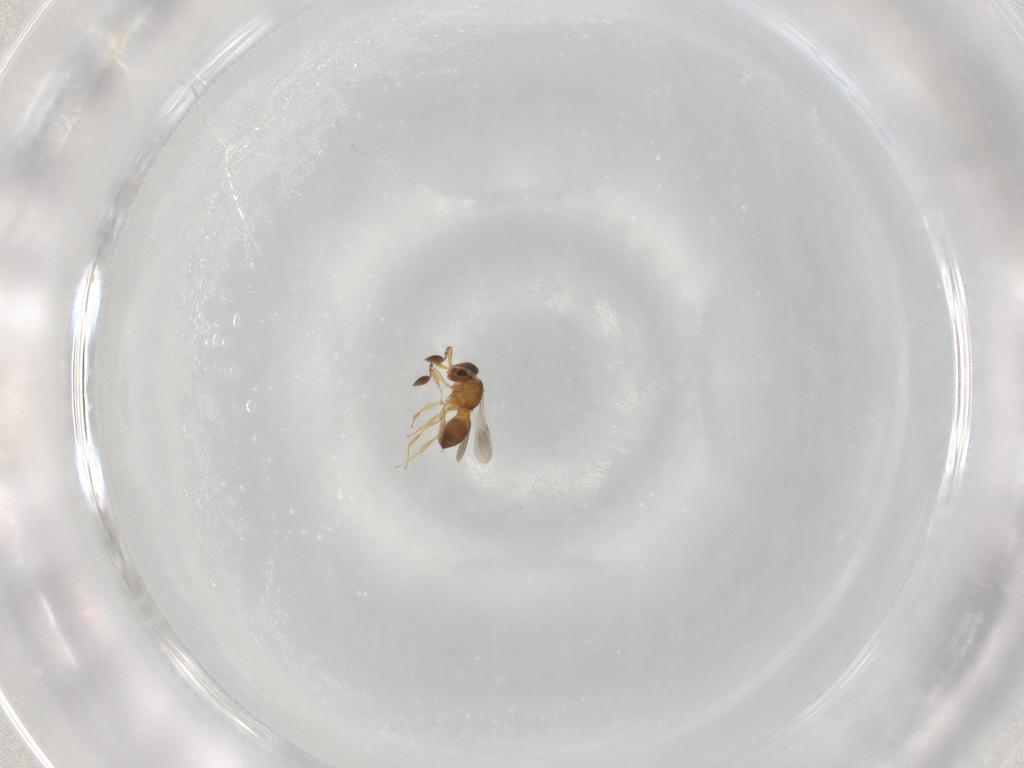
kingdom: Animalia
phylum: Arthropoda
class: Insecta
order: Hymenoptera
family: Scelionidae
